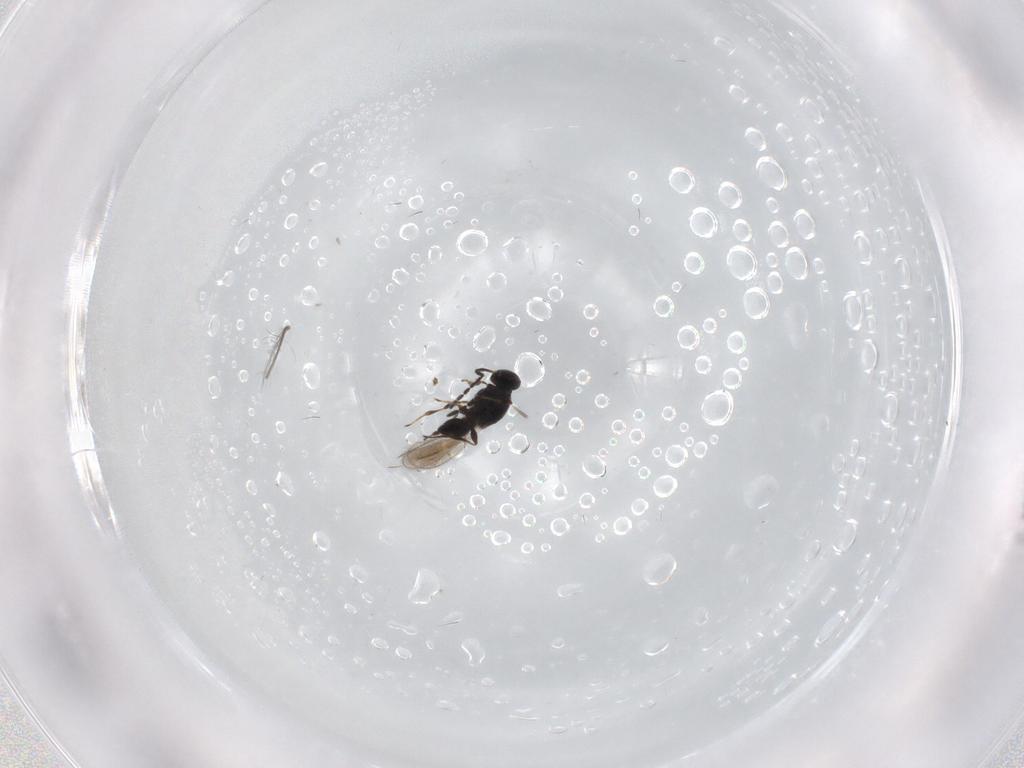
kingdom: Animalia
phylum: Arthropoda
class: Insecta
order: Hymenoptera
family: Platygastridae
